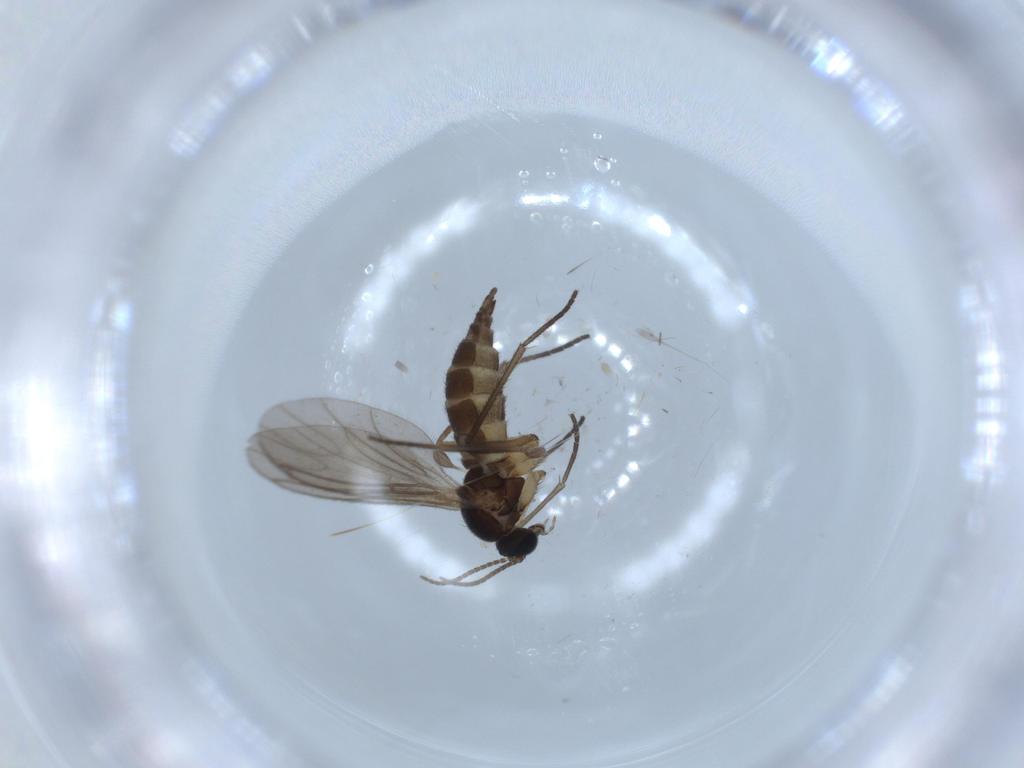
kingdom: Animalia
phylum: Arthropoda
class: Insecta
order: Diptera
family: Sciaridae
